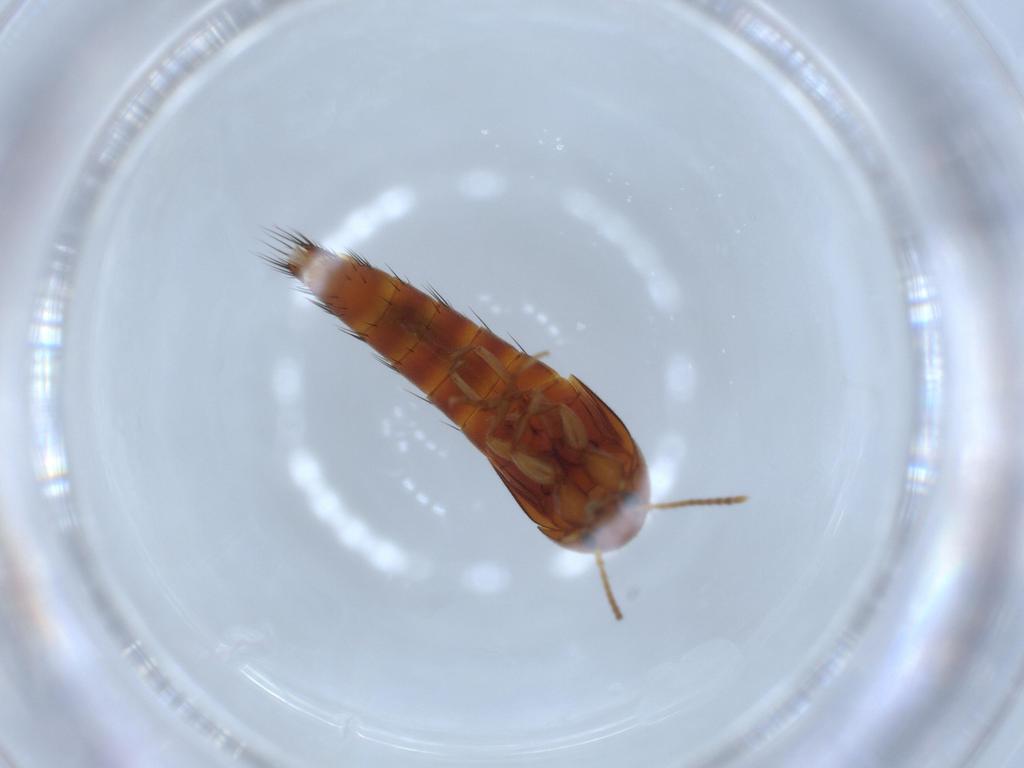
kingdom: Animalia
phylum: Arthropoda
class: Insecta
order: Coleoptera
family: Staphylinidae
